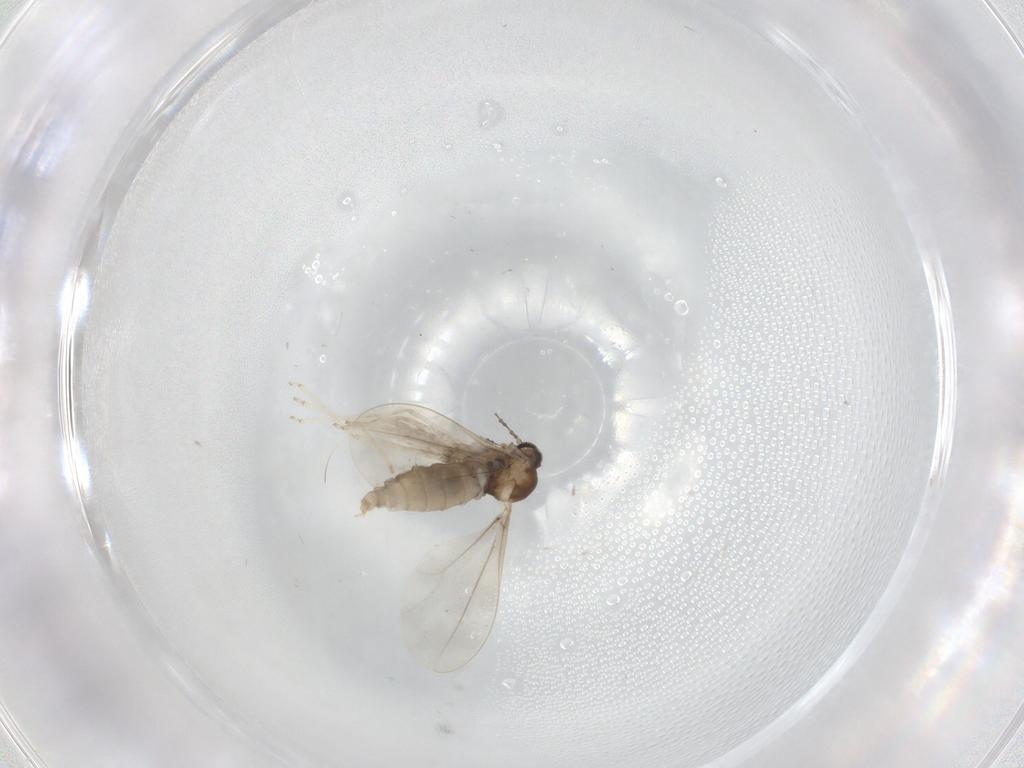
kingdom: Animalia
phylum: Arthropoda
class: Insecta
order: Diptera
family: Cecidomyiidae
